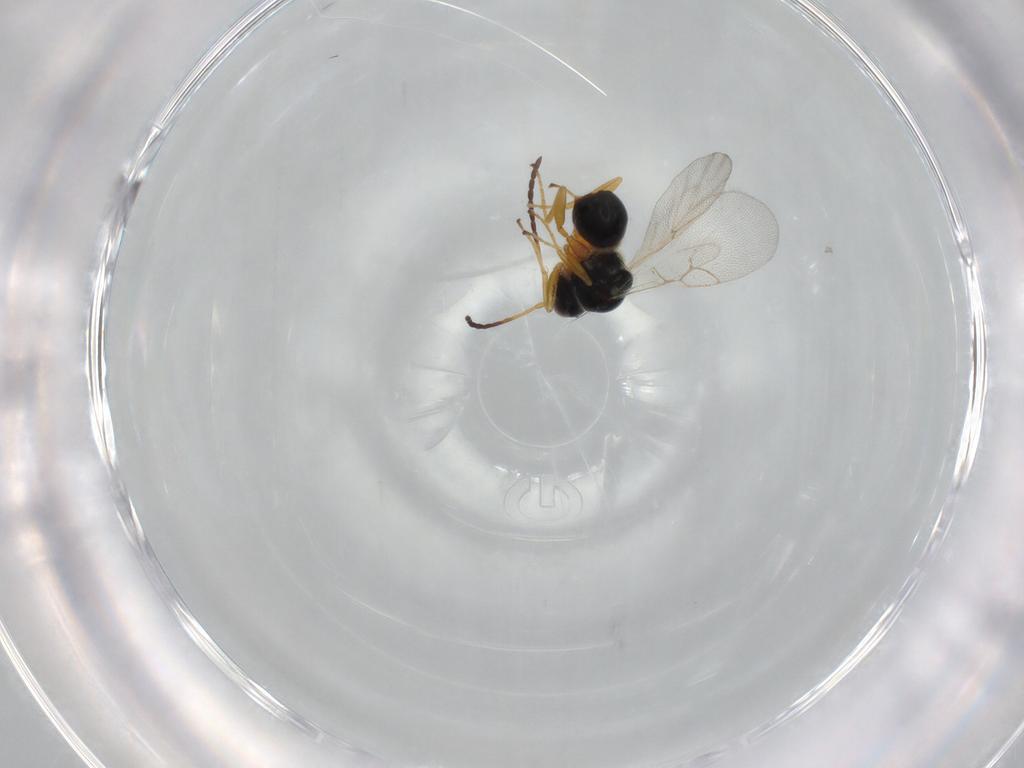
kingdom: Animalia
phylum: Arthropoda
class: Insecta
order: Hymenoptera
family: Figitidae
